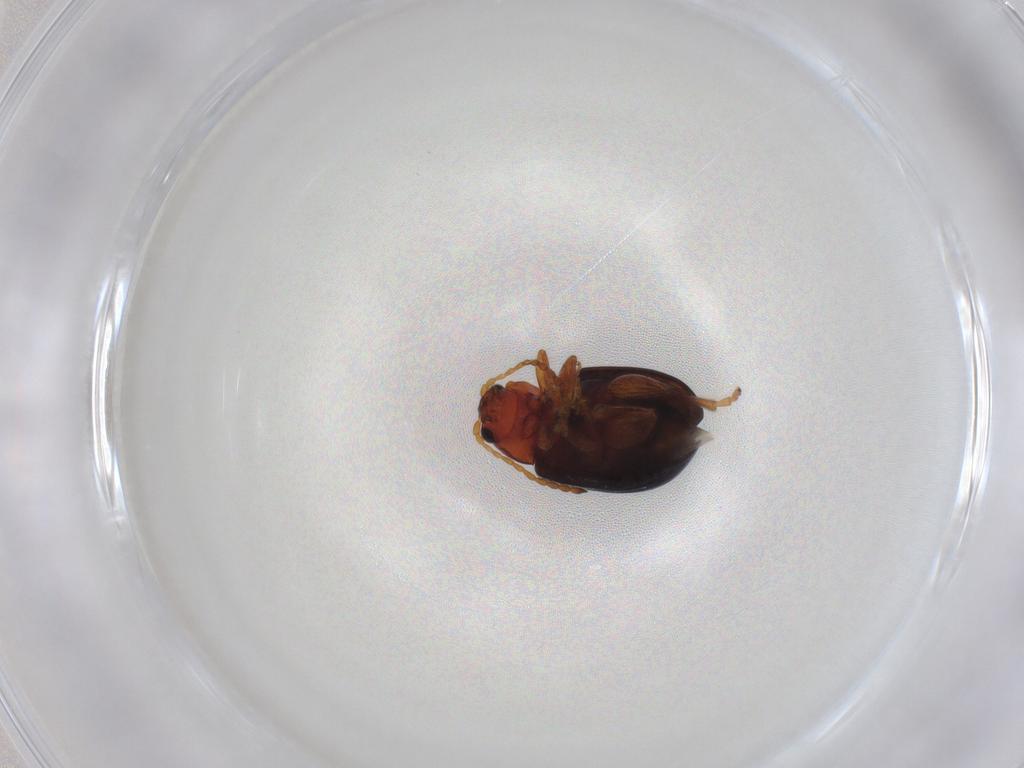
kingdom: Animalia
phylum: Arthropoda
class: Insecta
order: Coleoptera
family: Chrysomelidae
